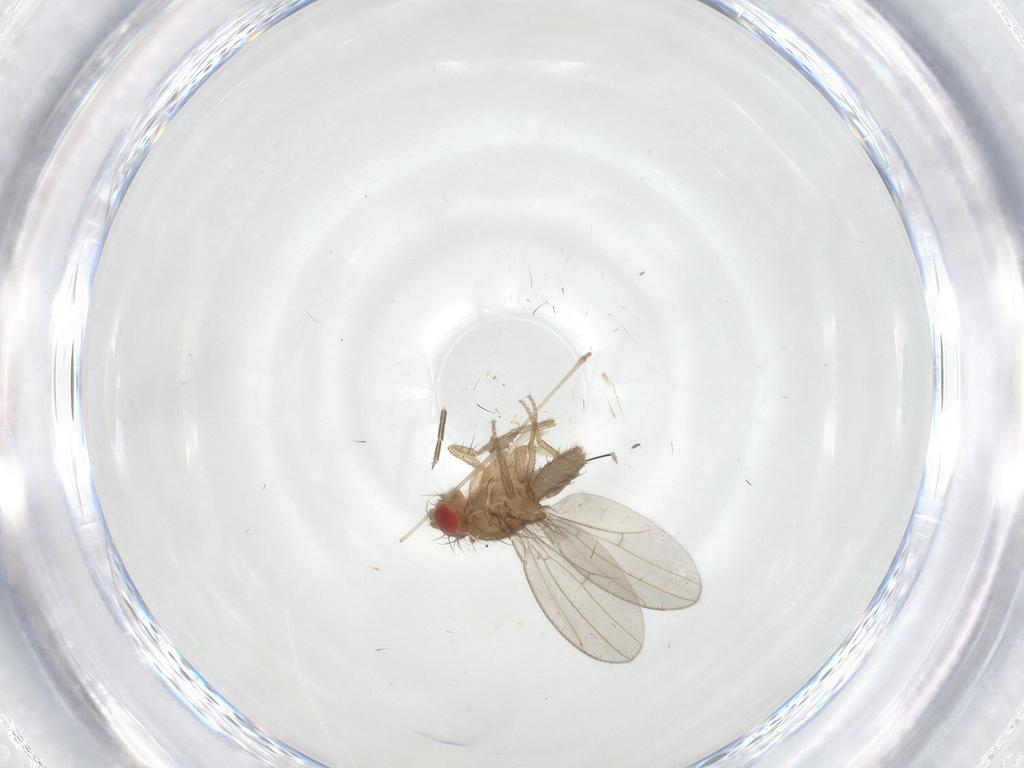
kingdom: Animalia
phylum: Arthropoda
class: Insecta
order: Diptera
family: Drosophilidae
